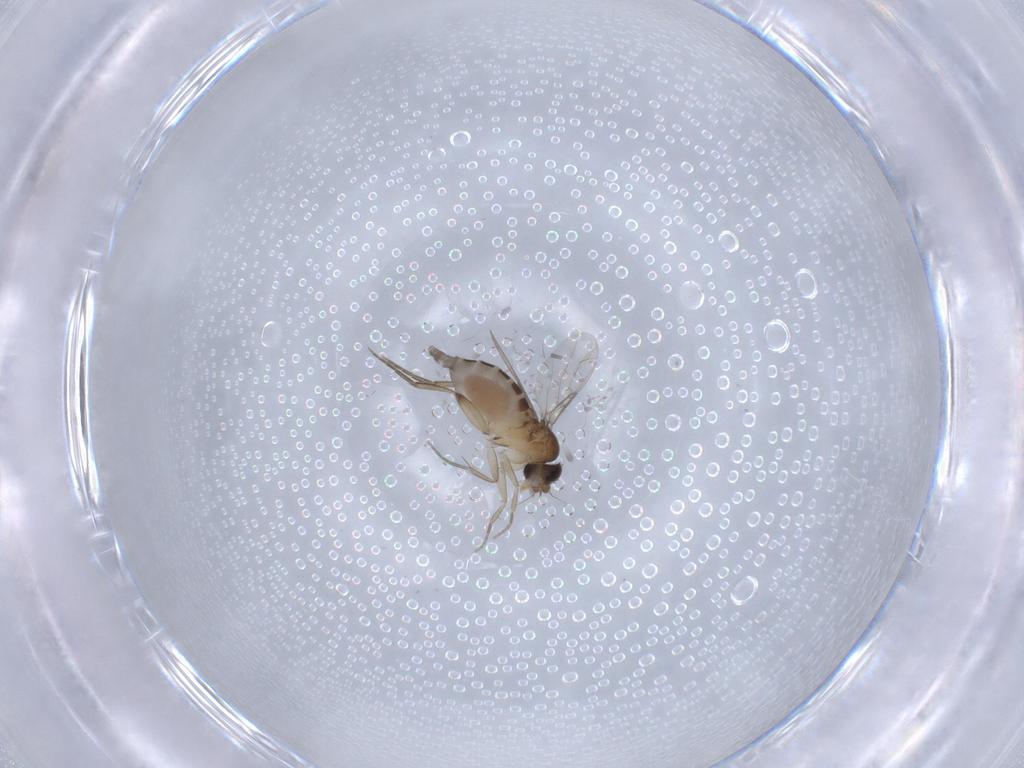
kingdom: Animalia
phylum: Arthropoda
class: Insecta
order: Diptera
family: Phoridae
